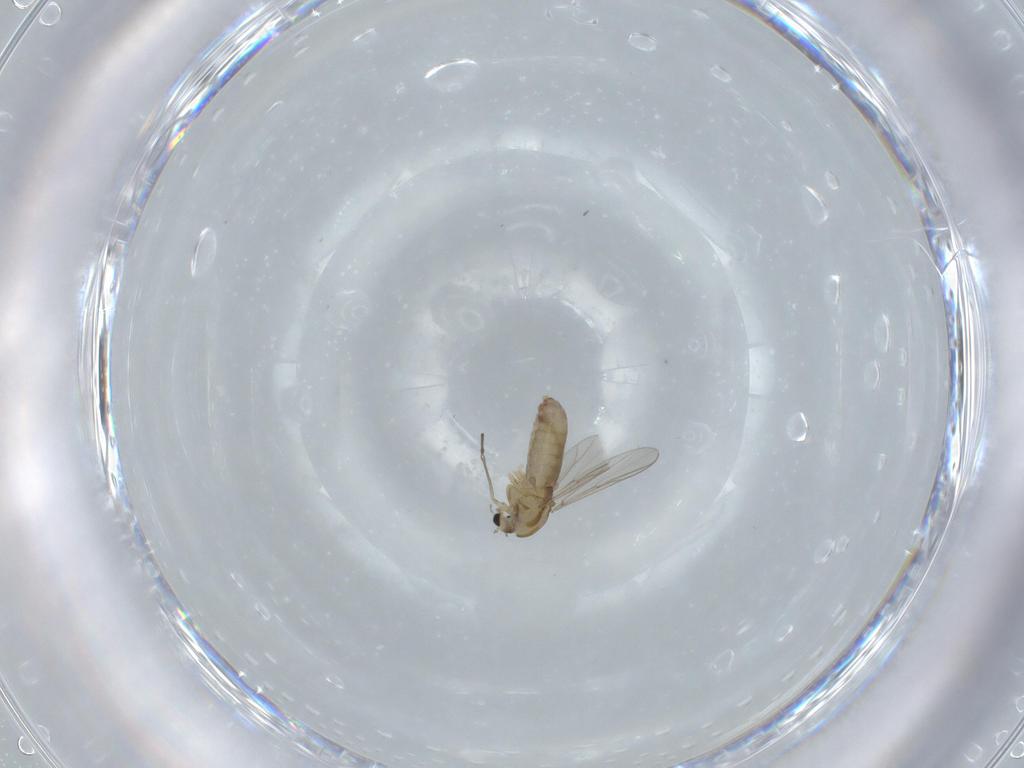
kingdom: Animalia
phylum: Arthropoda
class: Insecta
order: Diptera
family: Chironomidae
